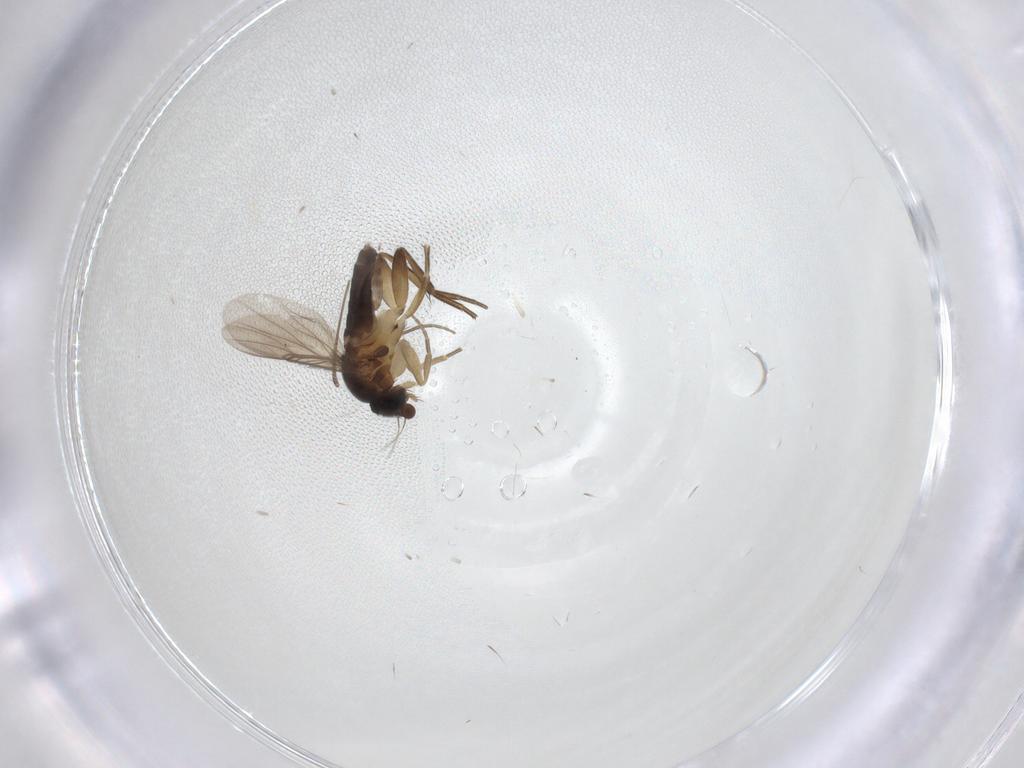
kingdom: Animalia
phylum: Arthropoda
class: Insecta
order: Diptera
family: Phoridae
